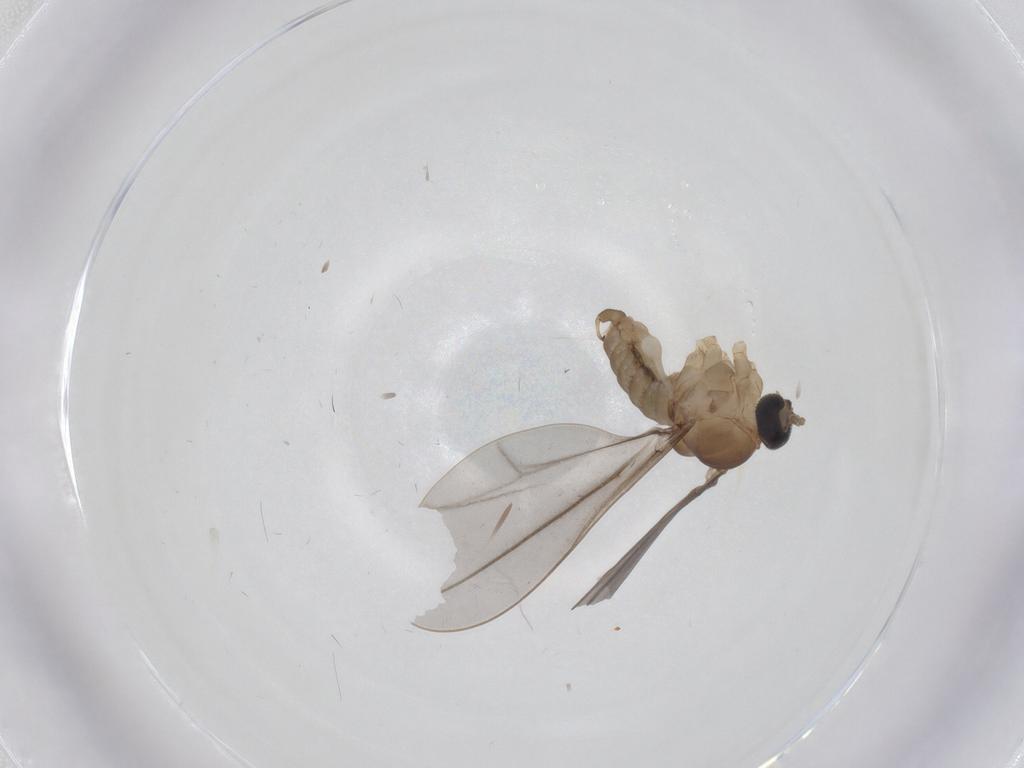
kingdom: Animalia
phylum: Arthropoda
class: Insecta
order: Diptera
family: Cecidomyiidae
